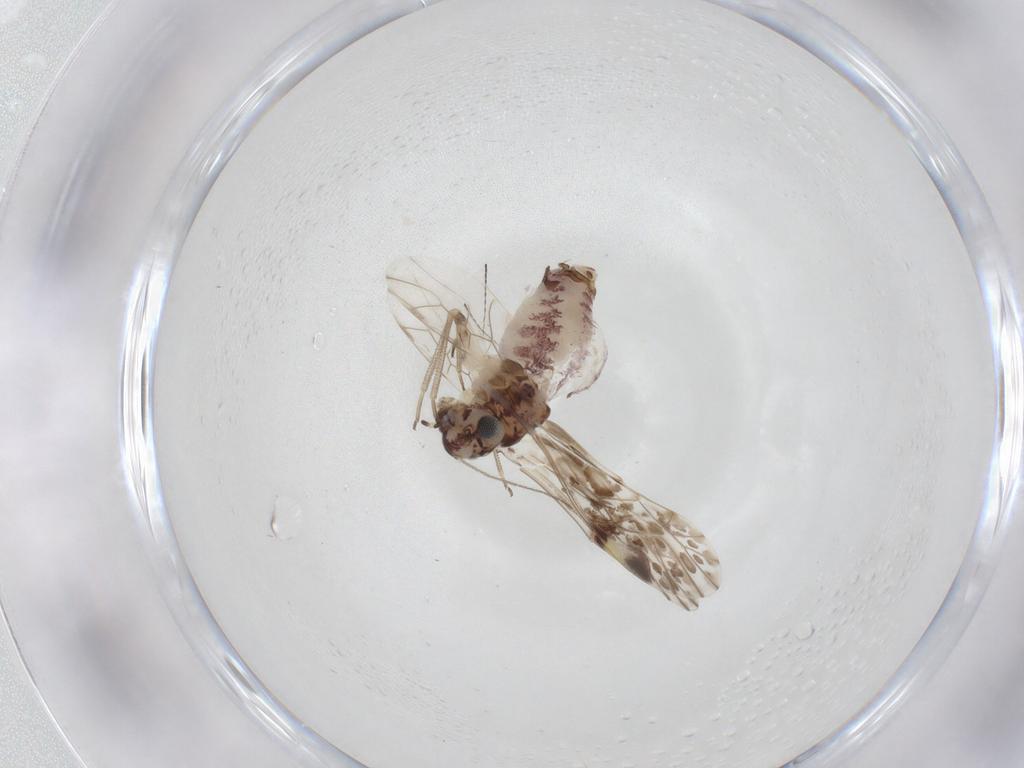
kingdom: Animalia
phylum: Arthropoda
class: Insecta
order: Psocodea
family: Psocidae
